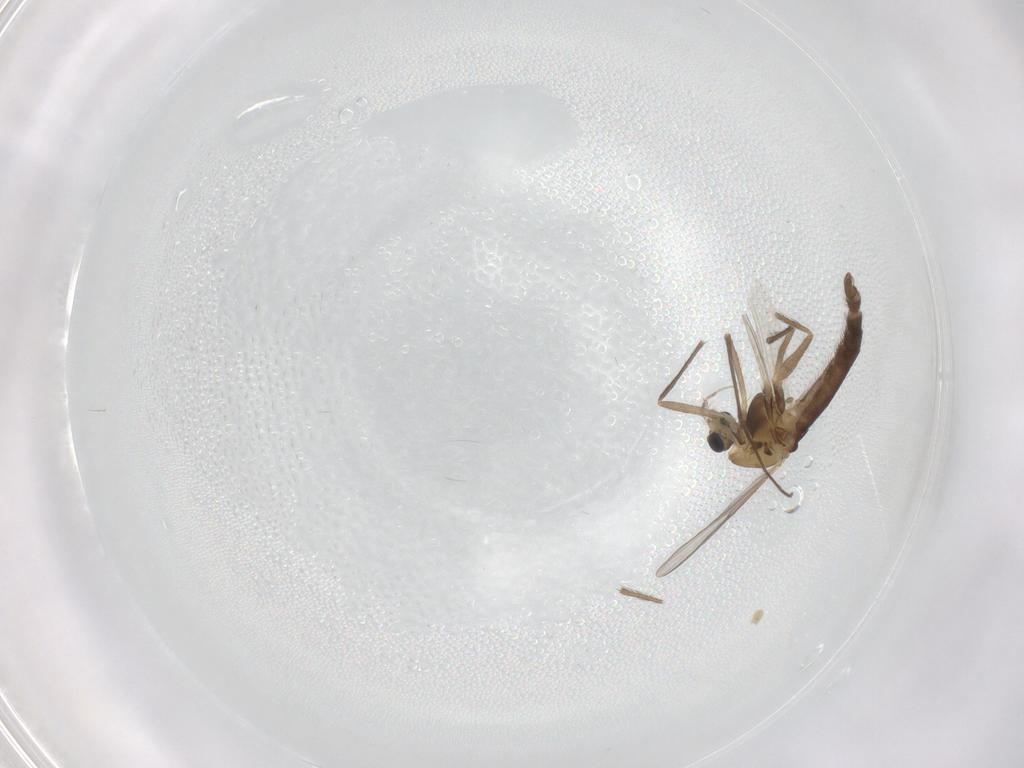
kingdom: Animalia
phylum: Arthropoda
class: Insecta
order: Diptera
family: Chironomidae
